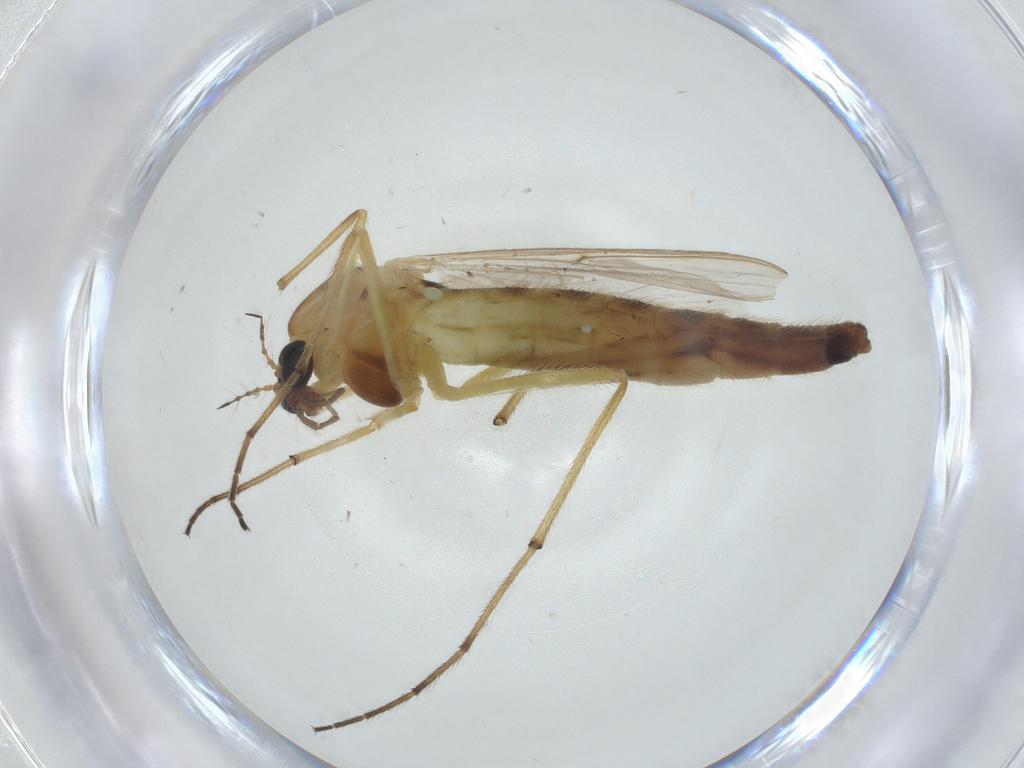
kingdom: Animalia
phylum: Arthropoda
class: Insecta
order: Diptera
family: Chironomidae
